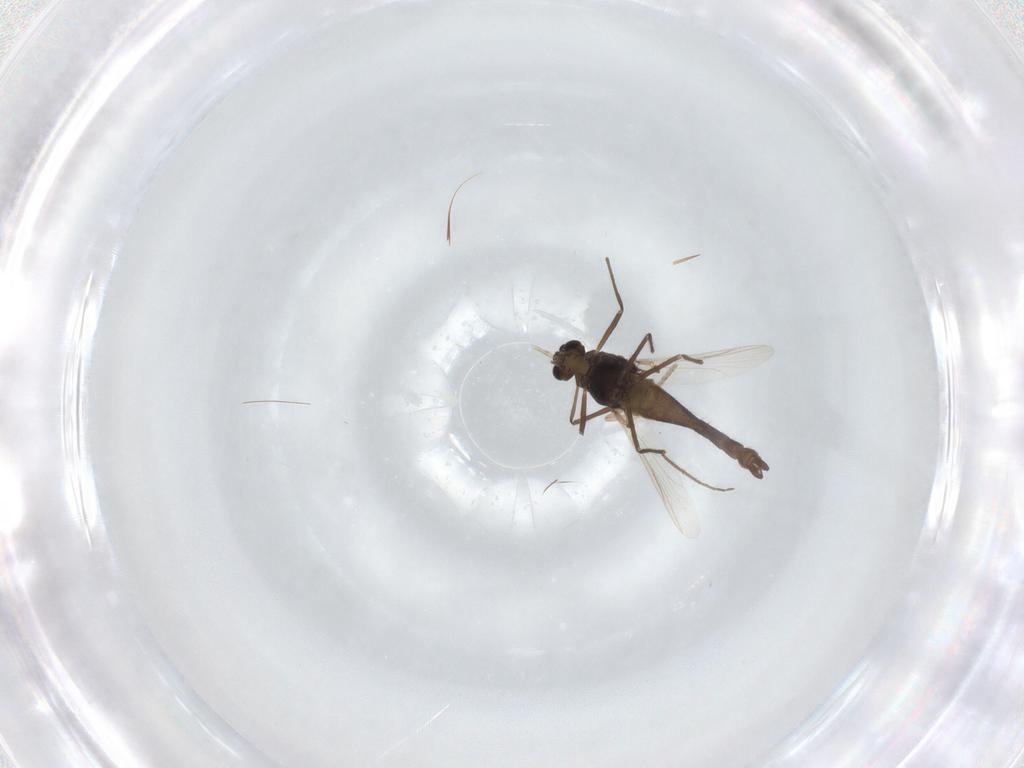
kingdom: Animalia
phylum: Arthropoda
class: Insecta
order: Diptera
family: Chironomidae
